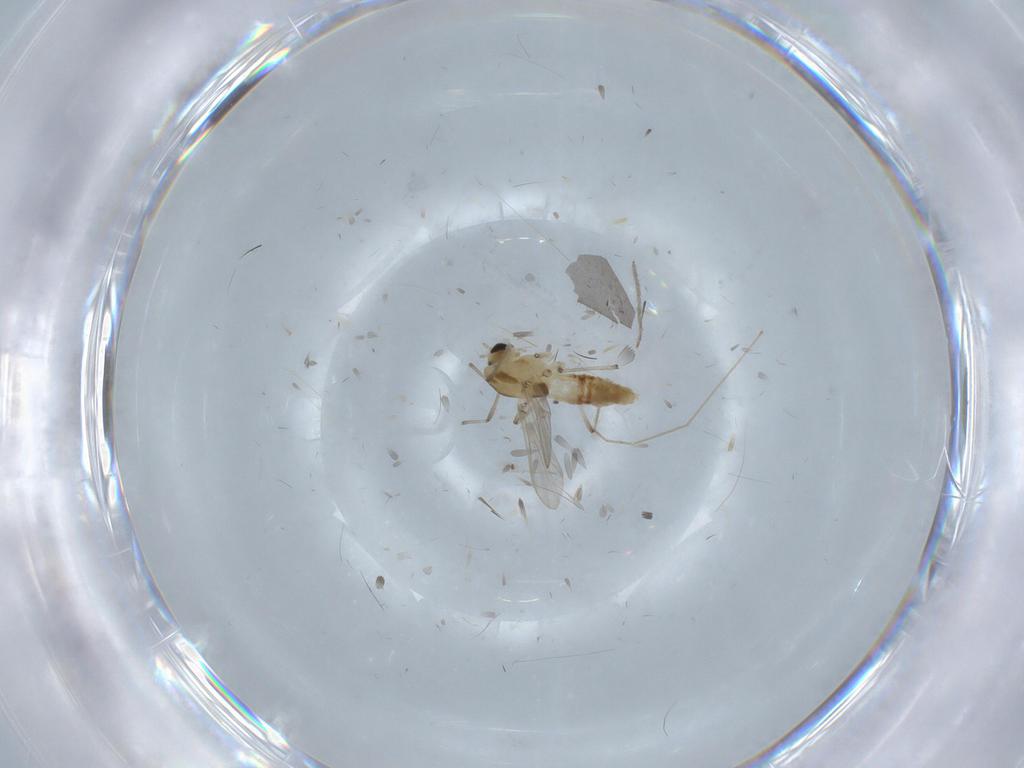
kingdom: Animalia
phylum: Arthropoda
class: Insecta
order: Diptera
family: Chironomidae
